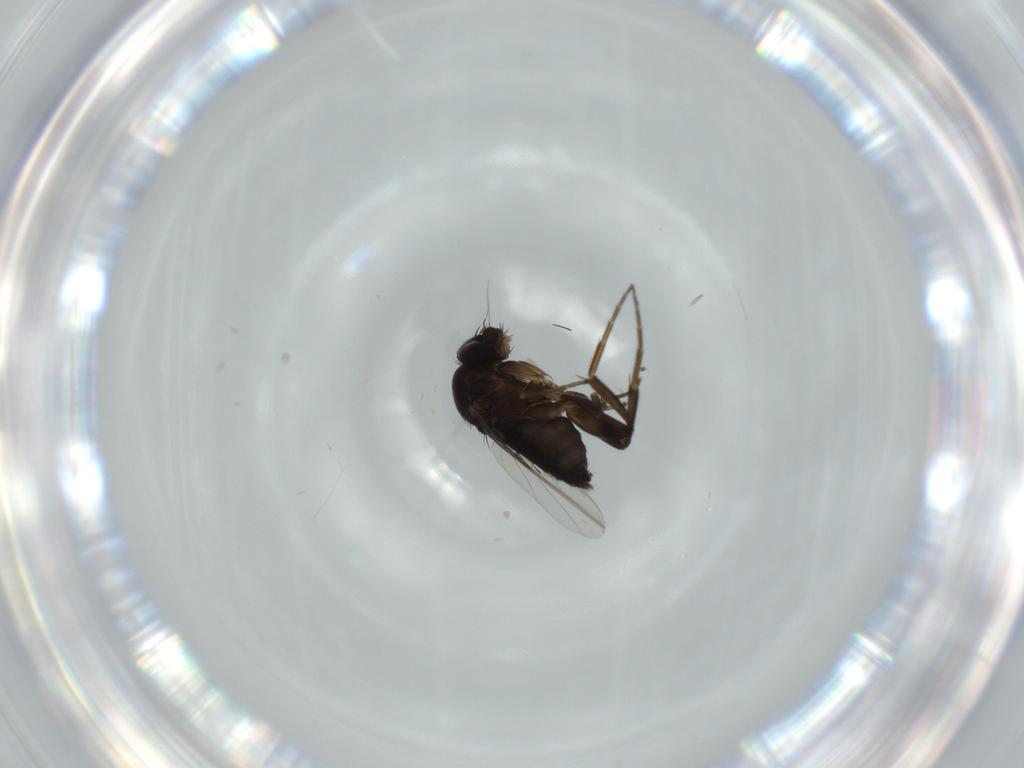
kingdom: Animalia
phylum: Arthropoda
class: Insecta
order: Diptera
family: Phoridae
